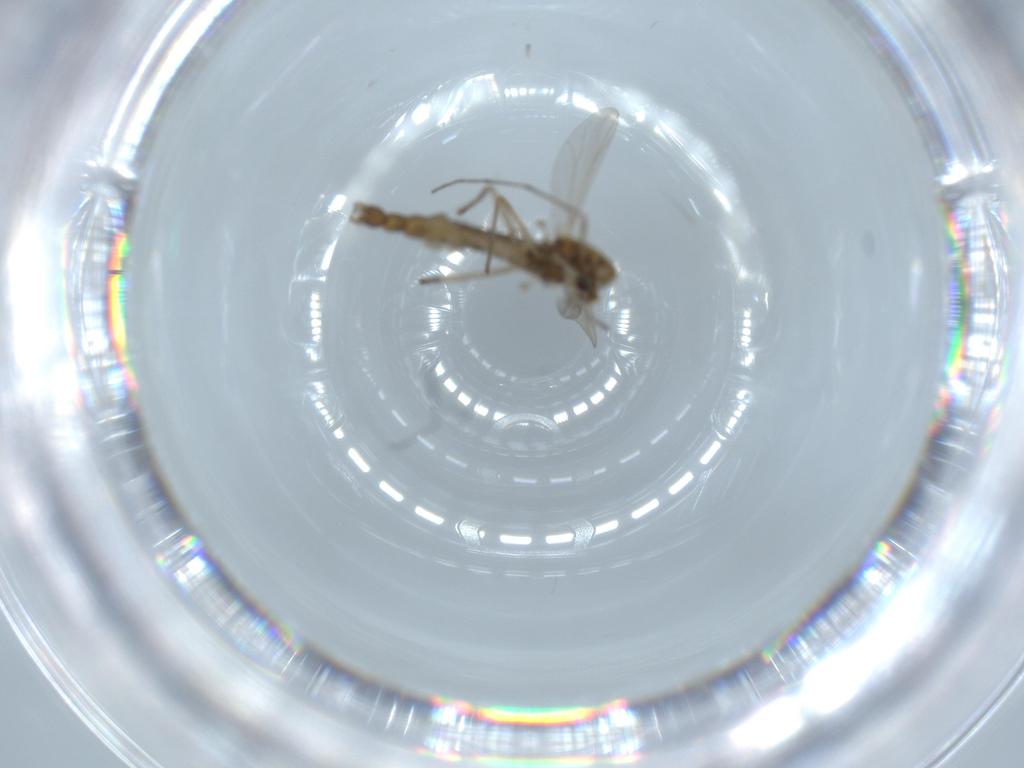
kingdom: Animalia
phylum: Arthropoda
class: Insecta
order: Diptera
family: Chironomidae
